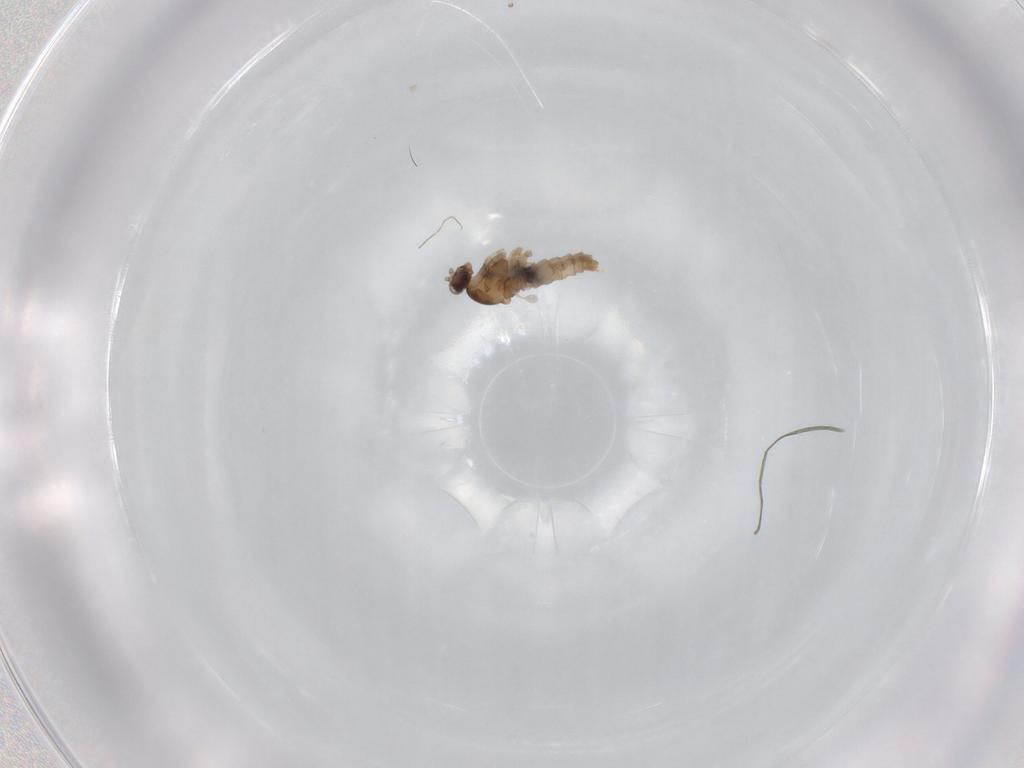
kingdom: Animalia
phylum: Arthropoda
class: Insecta
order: Diptera
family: Cecidomyiidae
